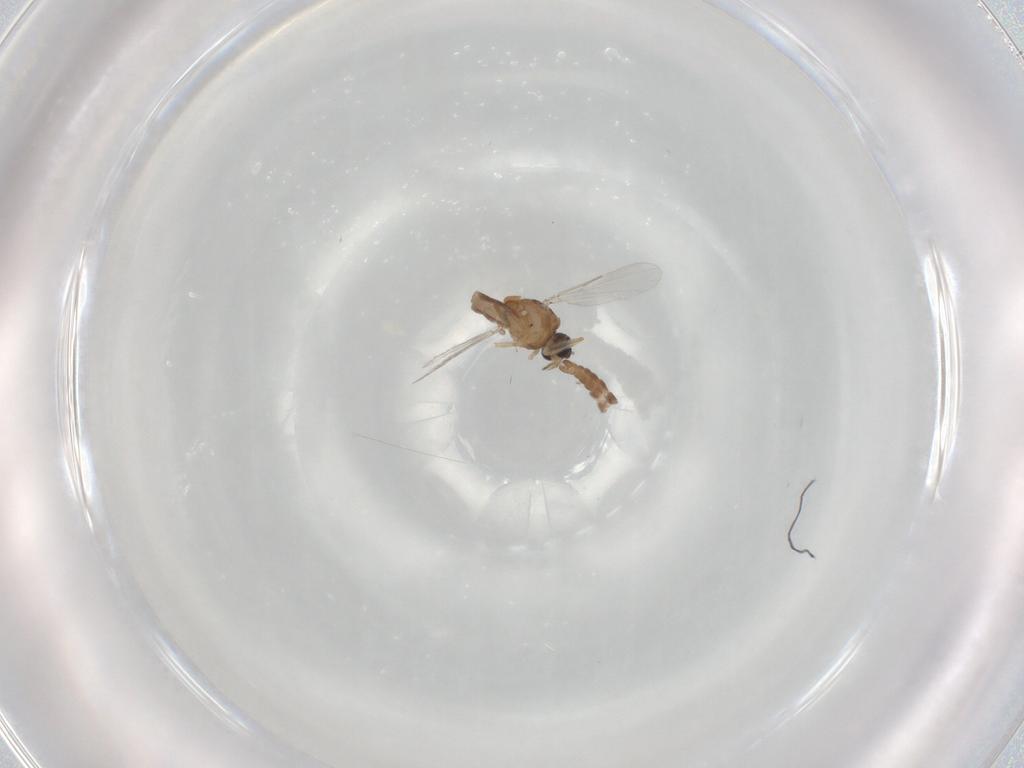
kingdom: Animalia
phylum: Arthropoda
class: Insecta
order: Diptera
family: Ceratopogonidae
